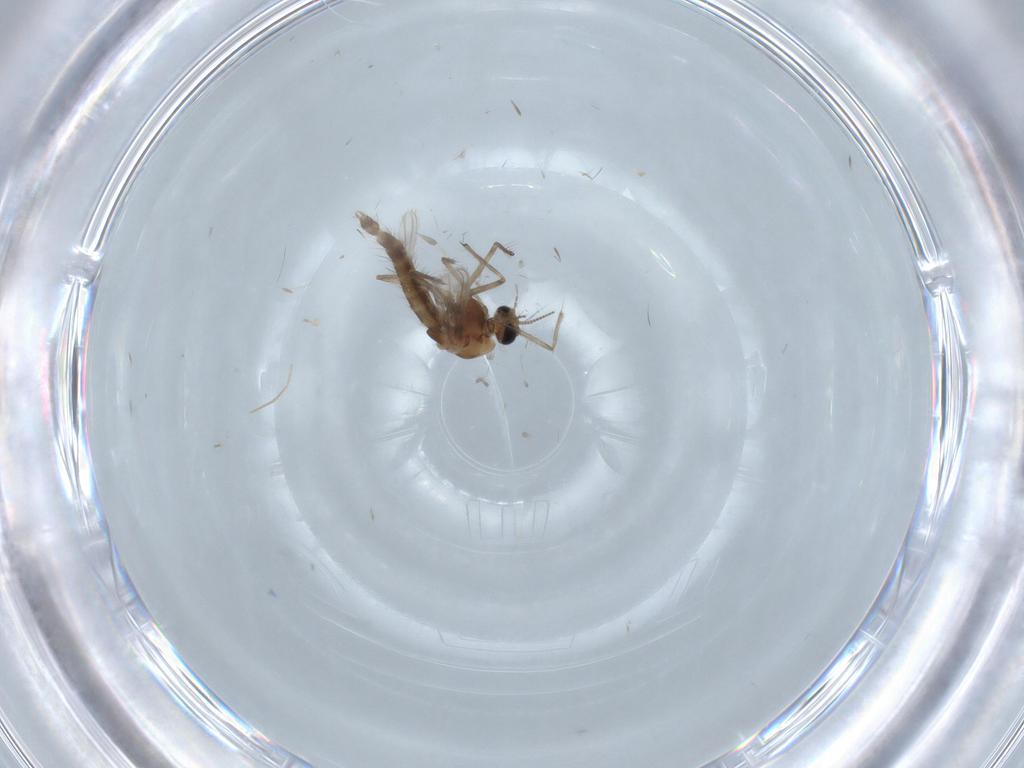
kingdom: Animalia
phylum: Arthropoda
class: Insecta
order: Diptera
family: Chironomidae
